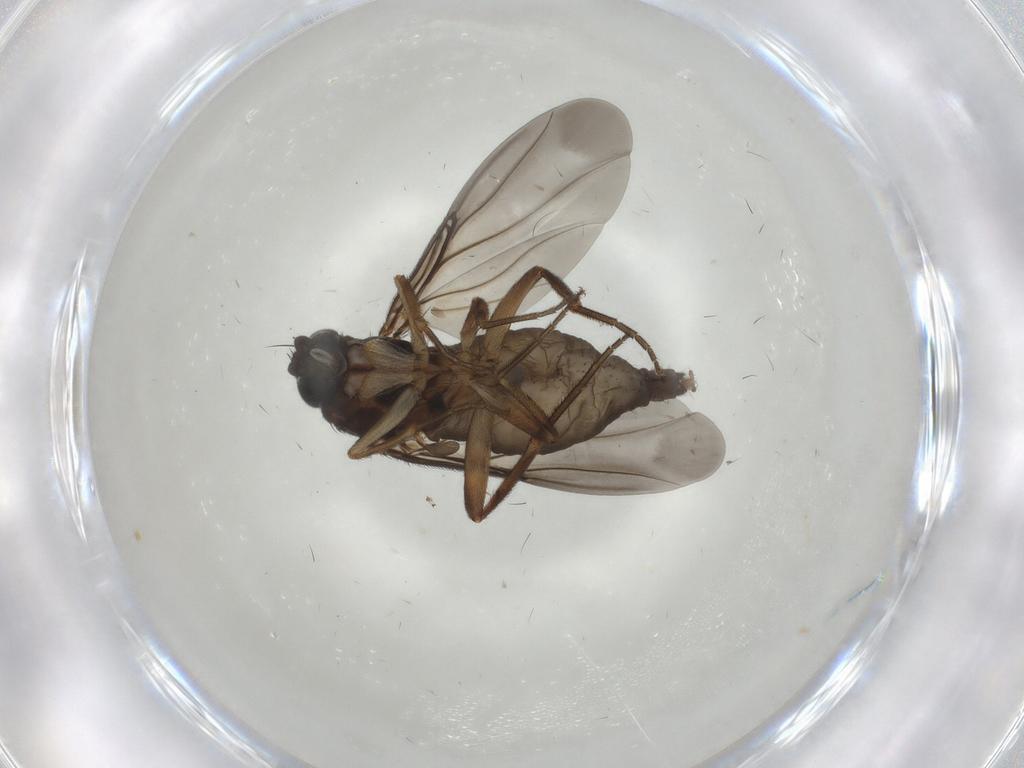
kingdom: Animalia
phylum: Arthropoda
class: Insecta
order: Diptera
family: Phoridae
